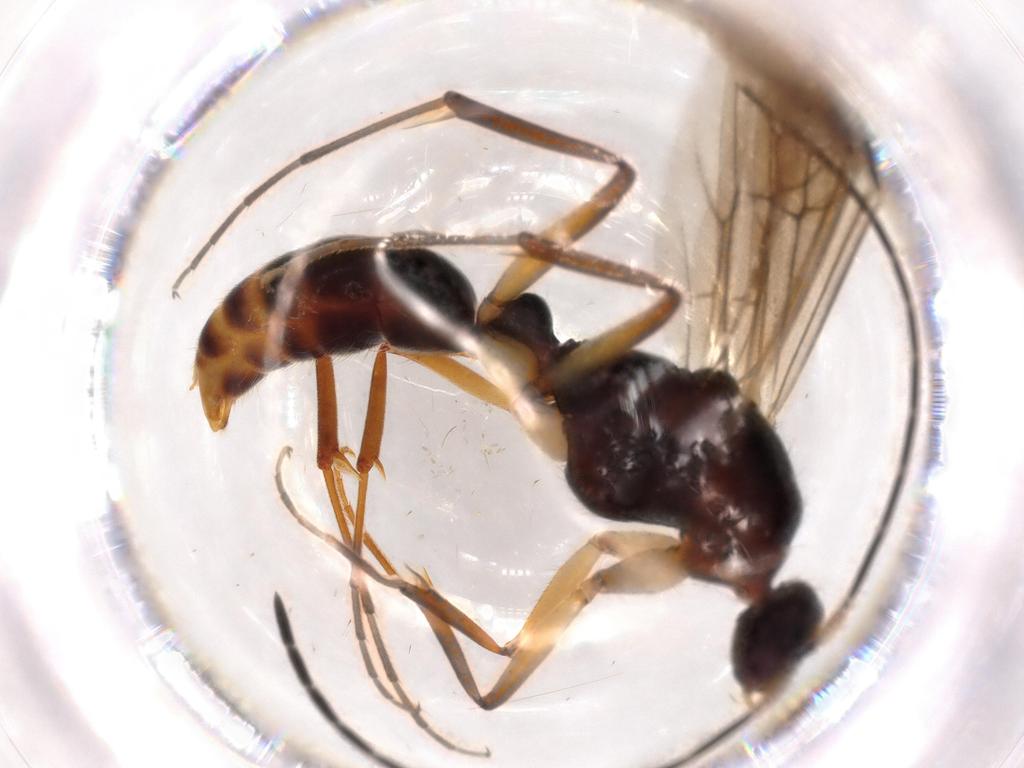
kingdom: Animalia
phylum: Arthropoda
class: Insecta
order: Hymenoptera
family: Formicidae
